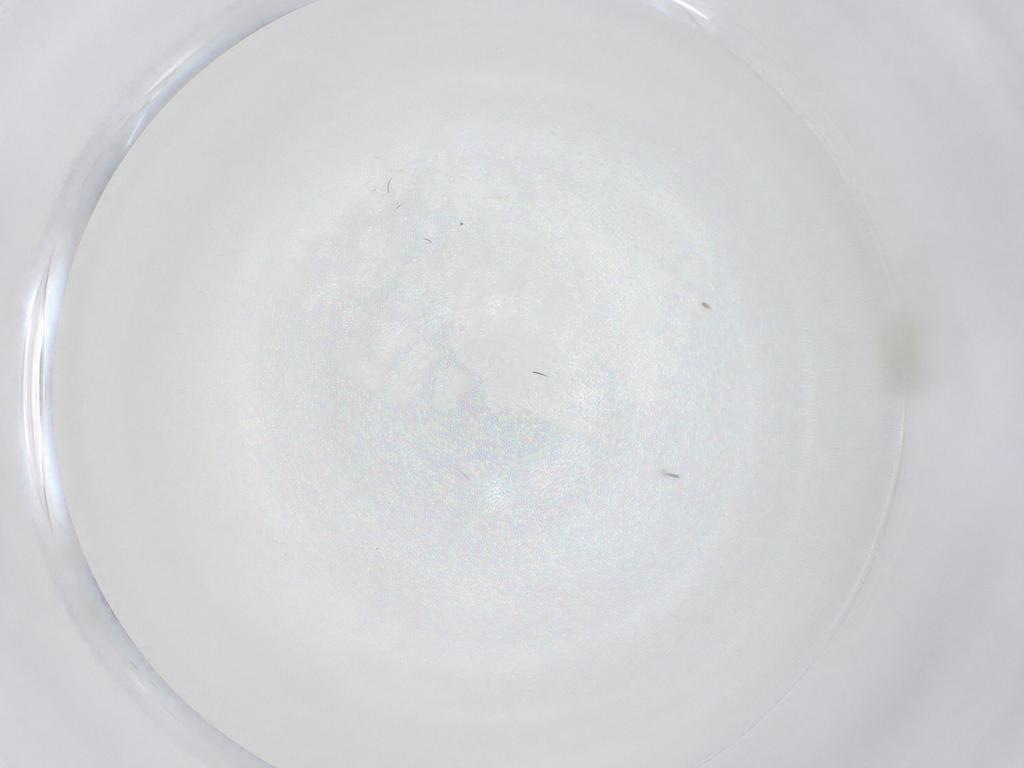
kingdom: Animalia
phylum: Arthropoda
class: Insecta
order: Diptera
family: Cecidomyiidae
